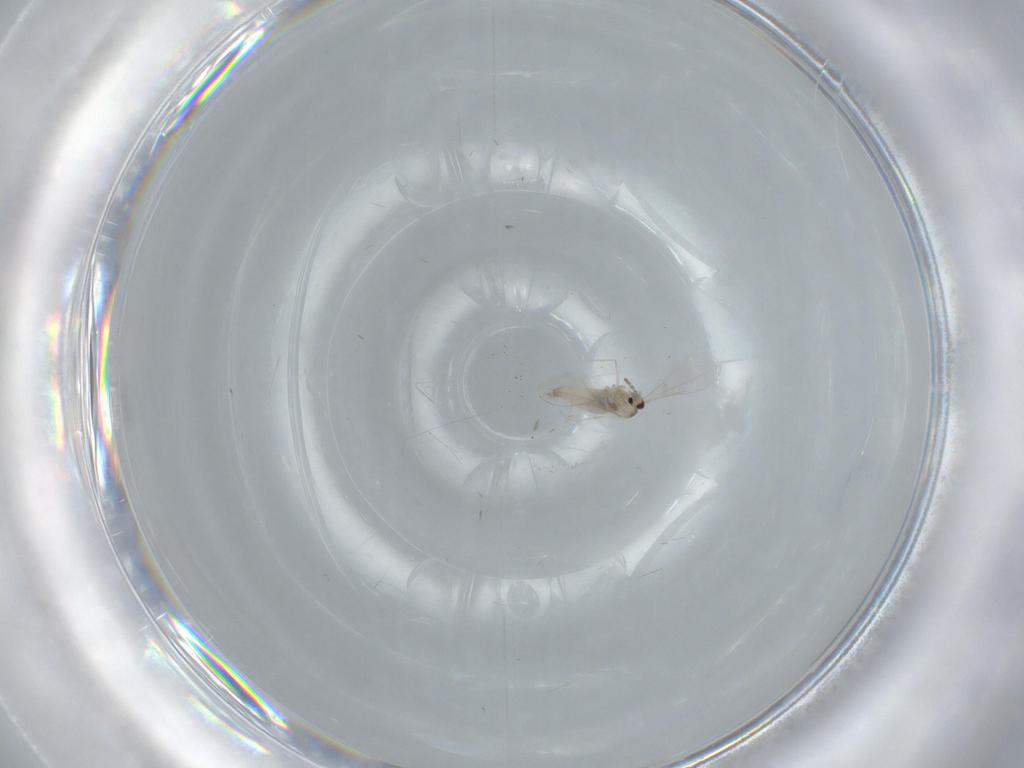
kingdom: Animalia
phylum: Arthropoda
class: Insecta
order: Diptera
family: Cecidomyiidae
